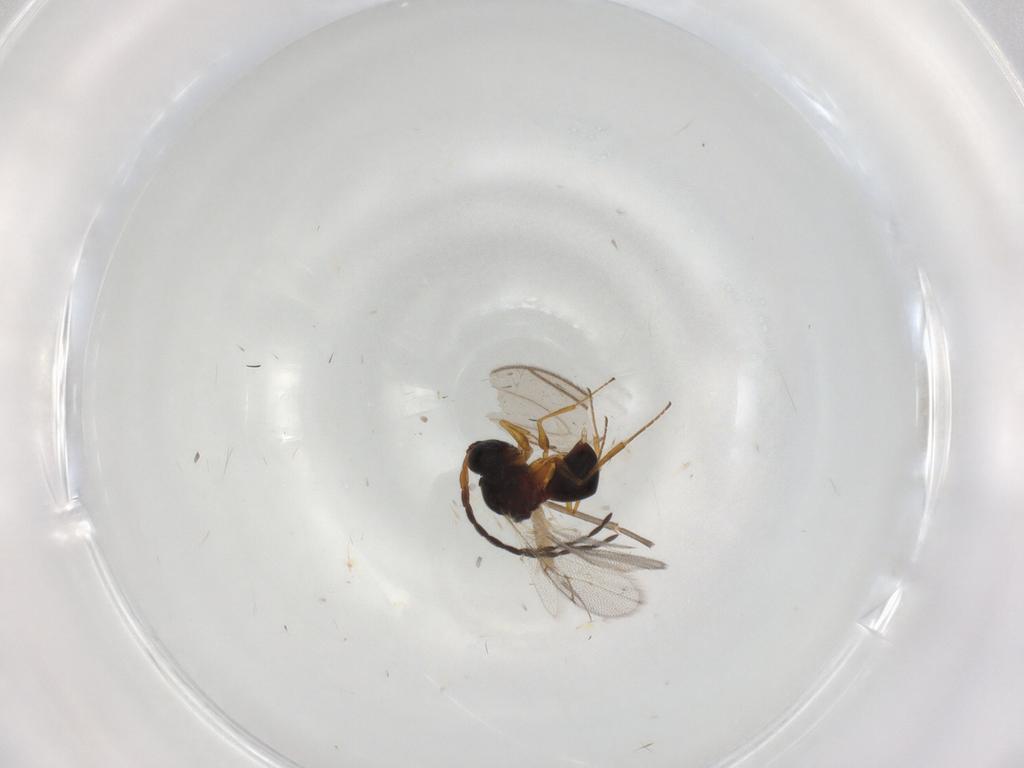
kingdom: Animalia
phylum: Arthropoda
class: Insecta
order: Hymenoptera
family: Figitidae
